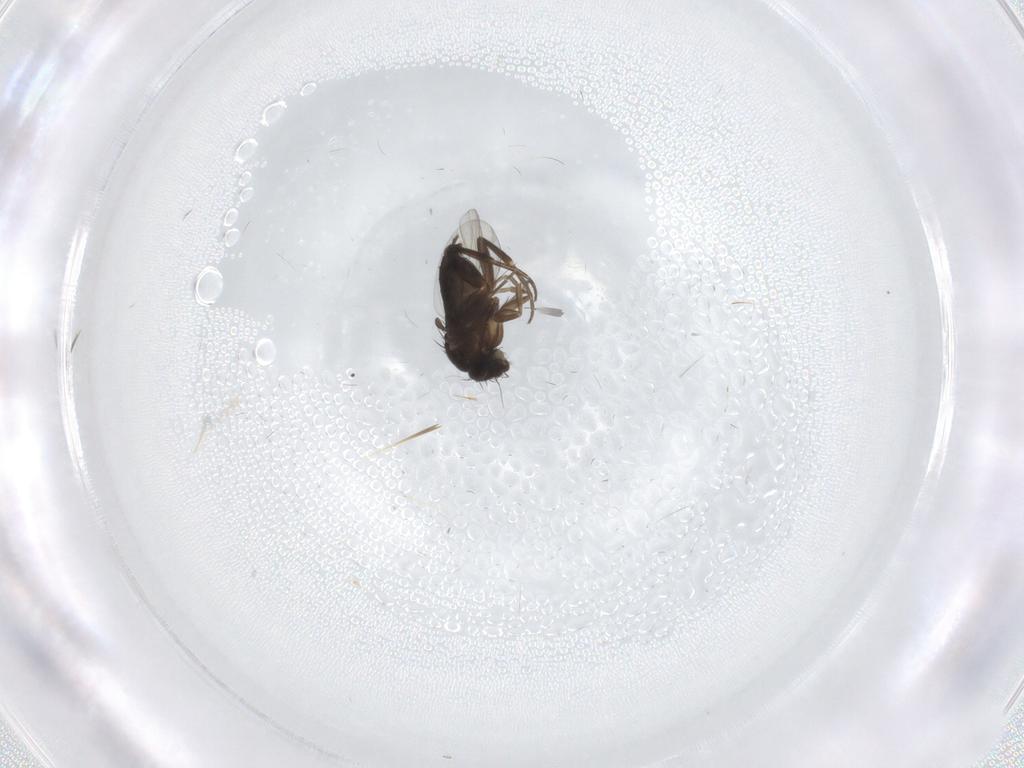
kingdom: Animalia
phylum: Arthropoda
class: Insecta
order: Diptera
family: Phoridae
